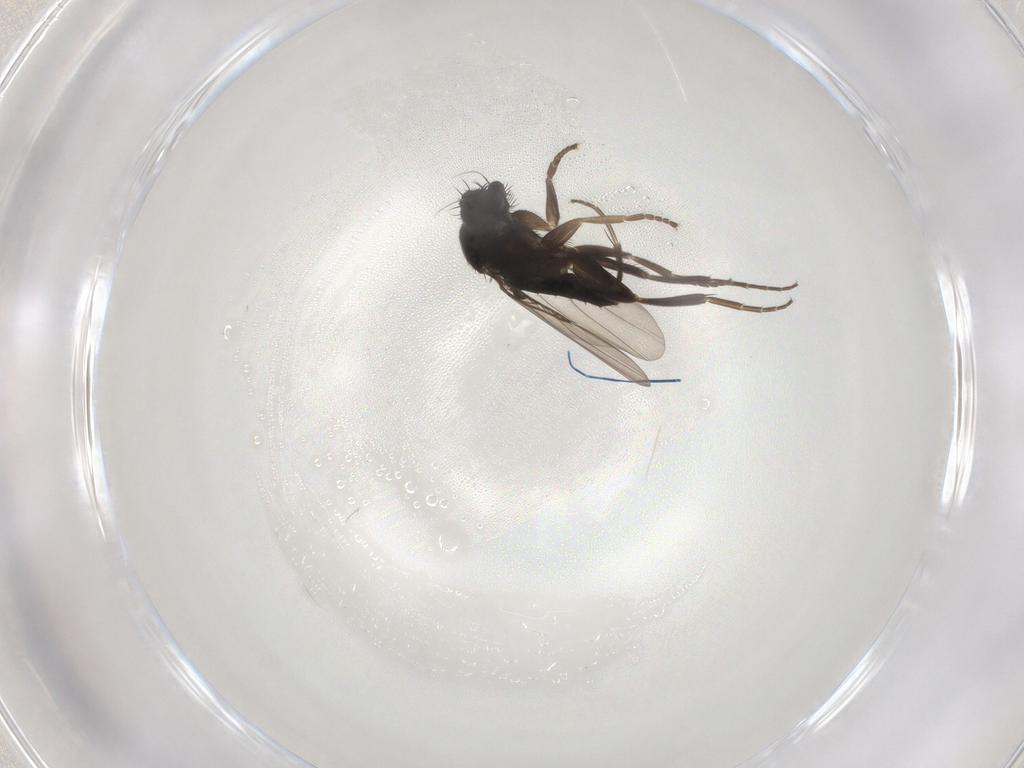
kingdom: Animalia
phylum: Arthropoda
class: Insecta
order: Diptera
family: Phoridae
